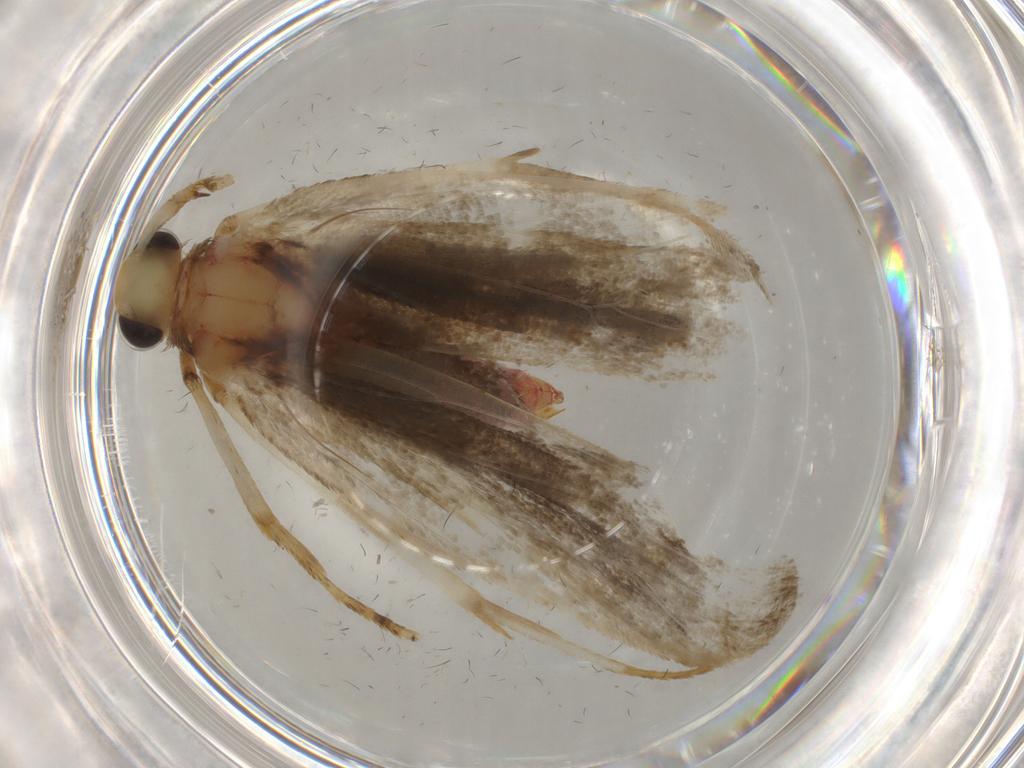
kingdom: Animalia
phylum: Arthropoda
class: Insecta
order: Lepidoptera
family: Autostichidae
